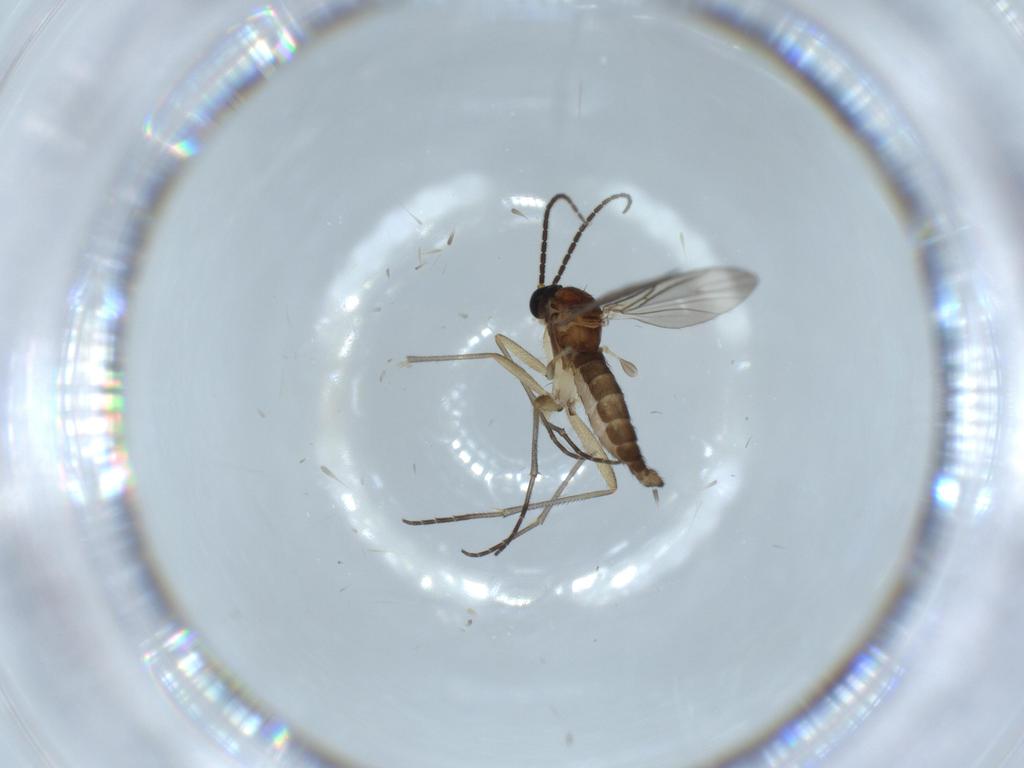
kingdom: Animalia
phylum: Arthropoda
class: Insecta
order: Diptera
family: Sciaridae
